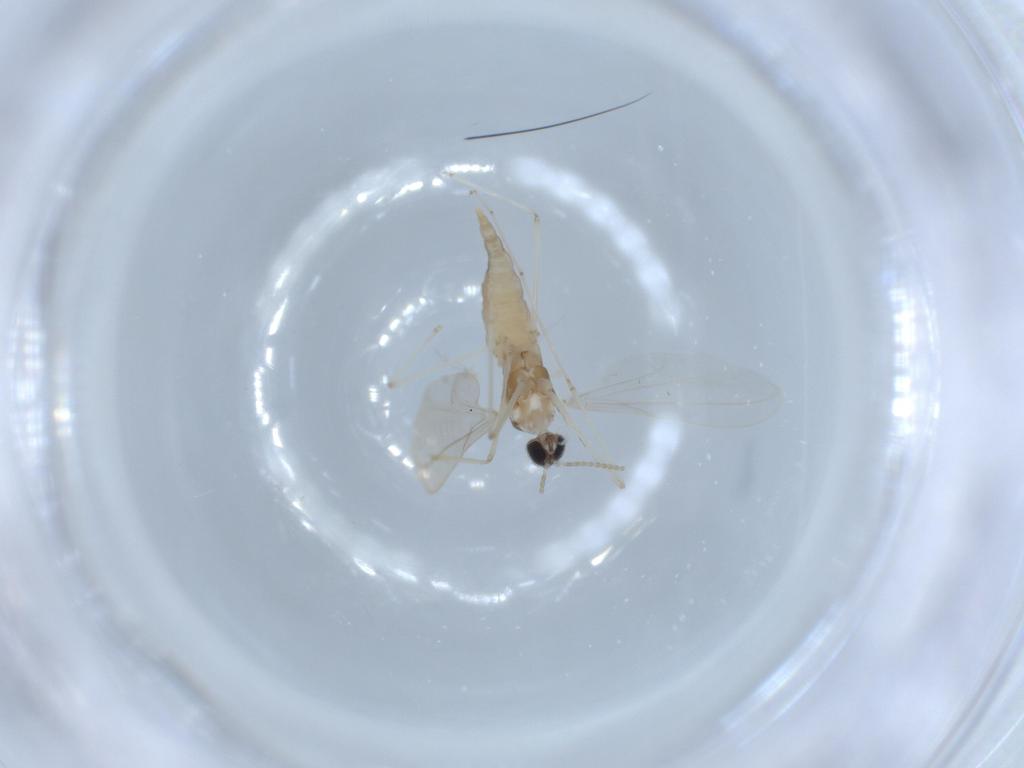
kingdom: Animalia
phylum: Arthropoda
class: Insecta
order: Diptera
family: Cecidomyiidae
